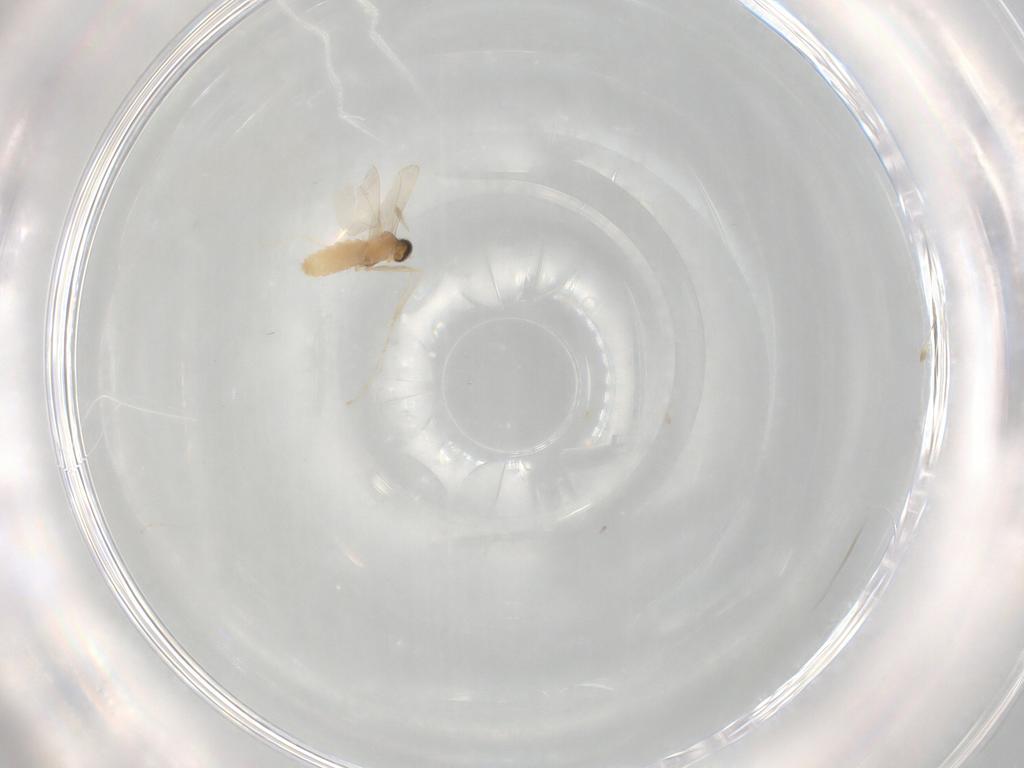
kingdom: Animalia
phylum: Arthropoda
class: Insecta
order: Diptera
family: Cecidomyiidae
